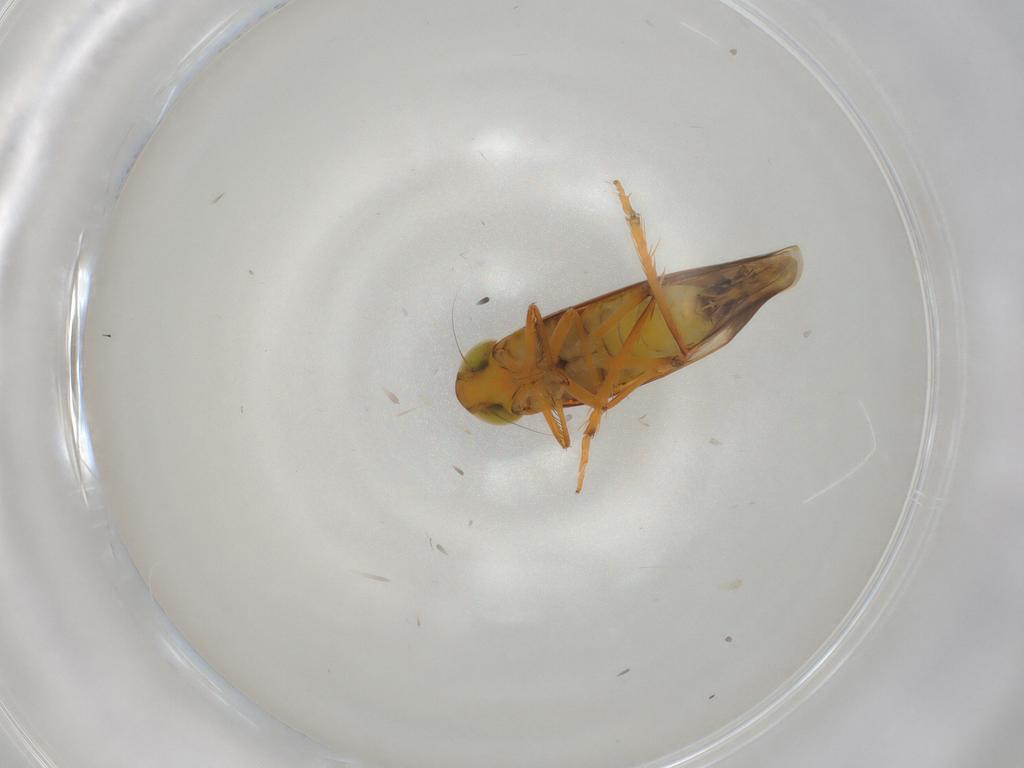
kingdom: Animalia
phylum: Arthropoda
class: Insecta
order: Hemiptera
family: Cicadellidae
